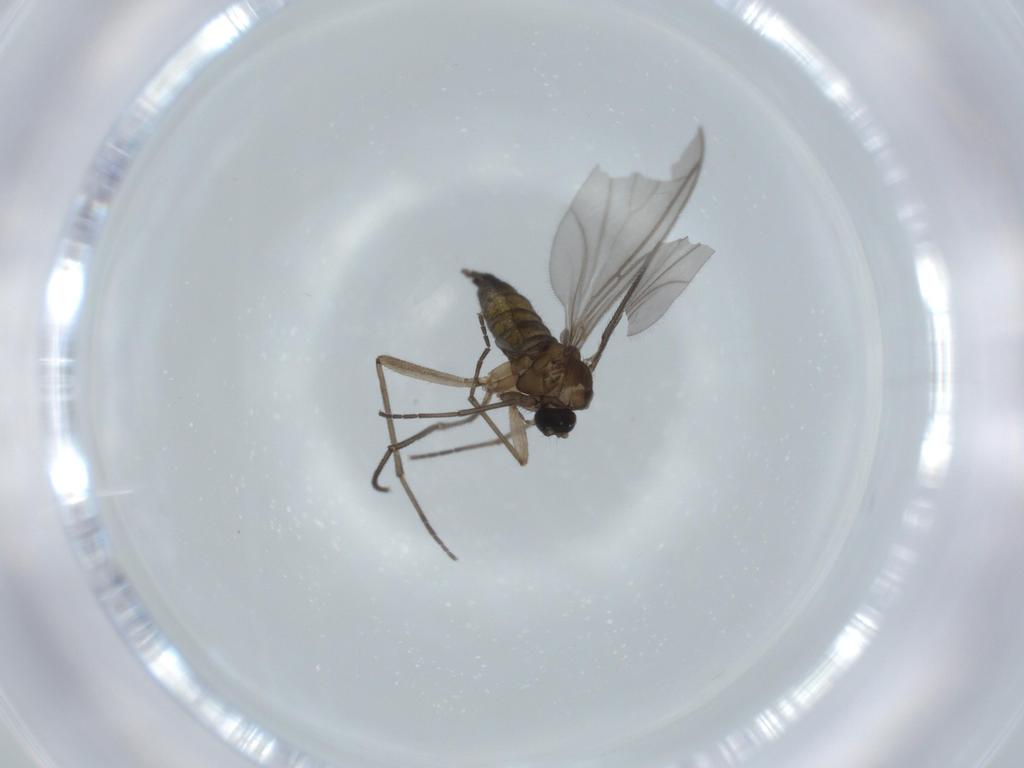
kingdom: Animalia
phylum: Arthropoda
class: Insecta
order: Diptera
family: Sciaridae
